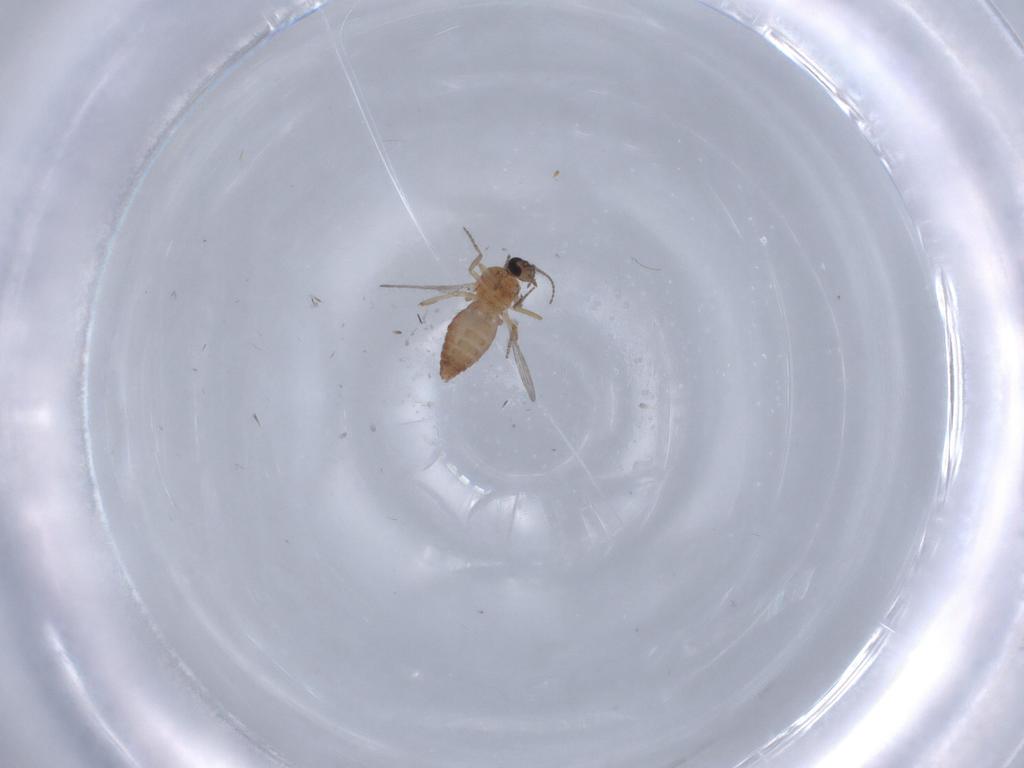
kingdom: Animalia
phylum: Arthropoda
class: Insecta
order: Diptera
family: Ceratopogonidae
